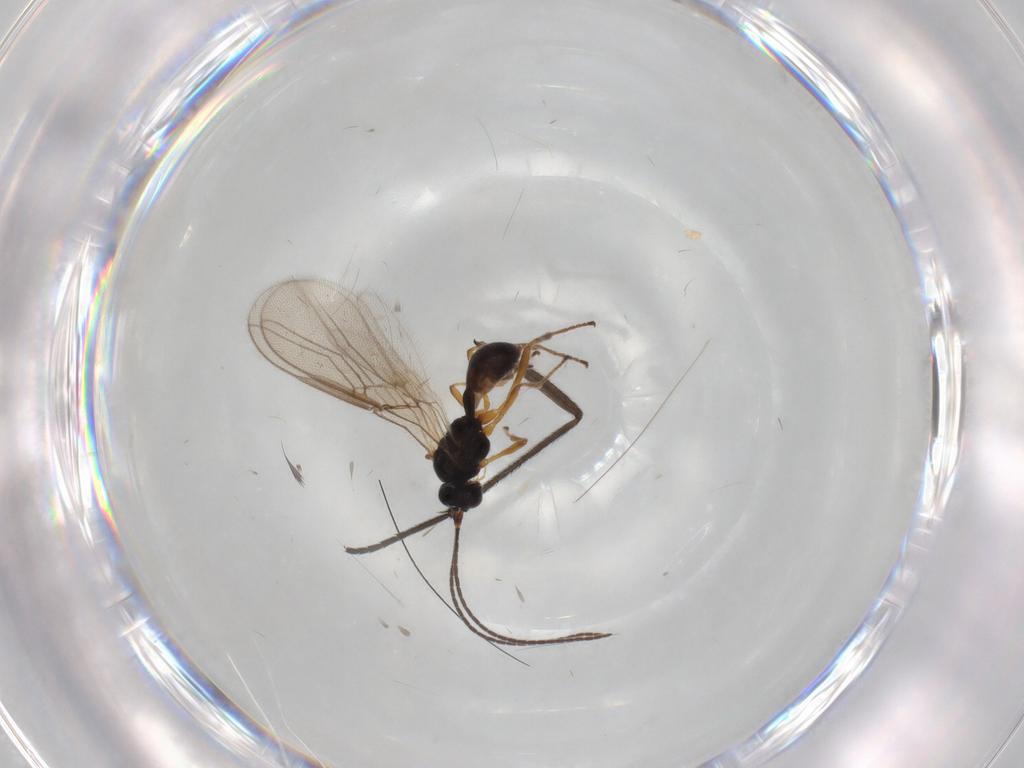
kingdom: Animalia
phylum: Arthropoda
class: Insecta
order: Hymenoptera
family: Braconidae
